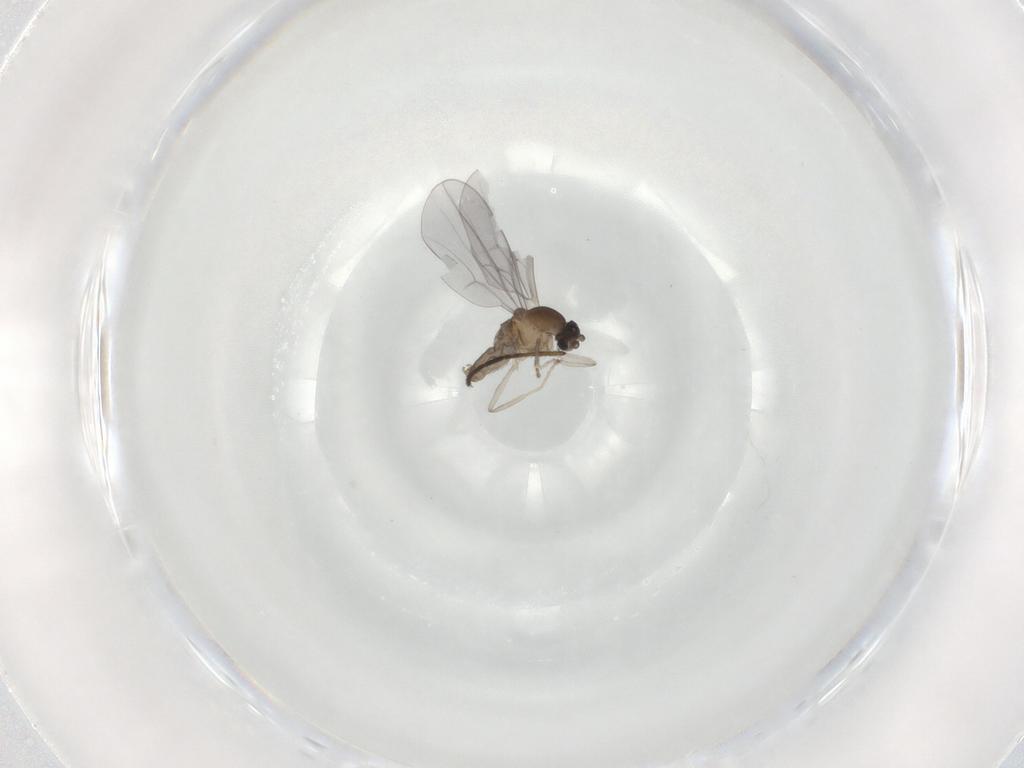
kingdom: Animalia
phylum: Arthropoda
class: Insecta
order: Diptera
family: Cecidomyiidae
